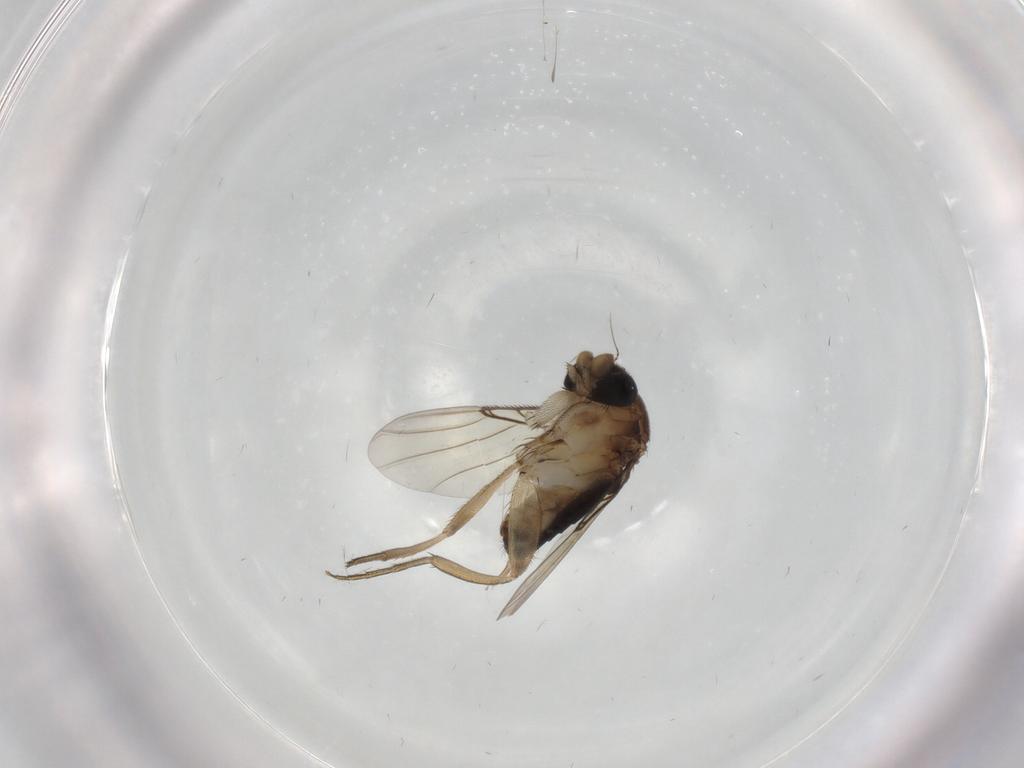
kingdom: Animalia
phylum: Arthropoda
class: Insecta
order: Diptera
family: Phoridae
